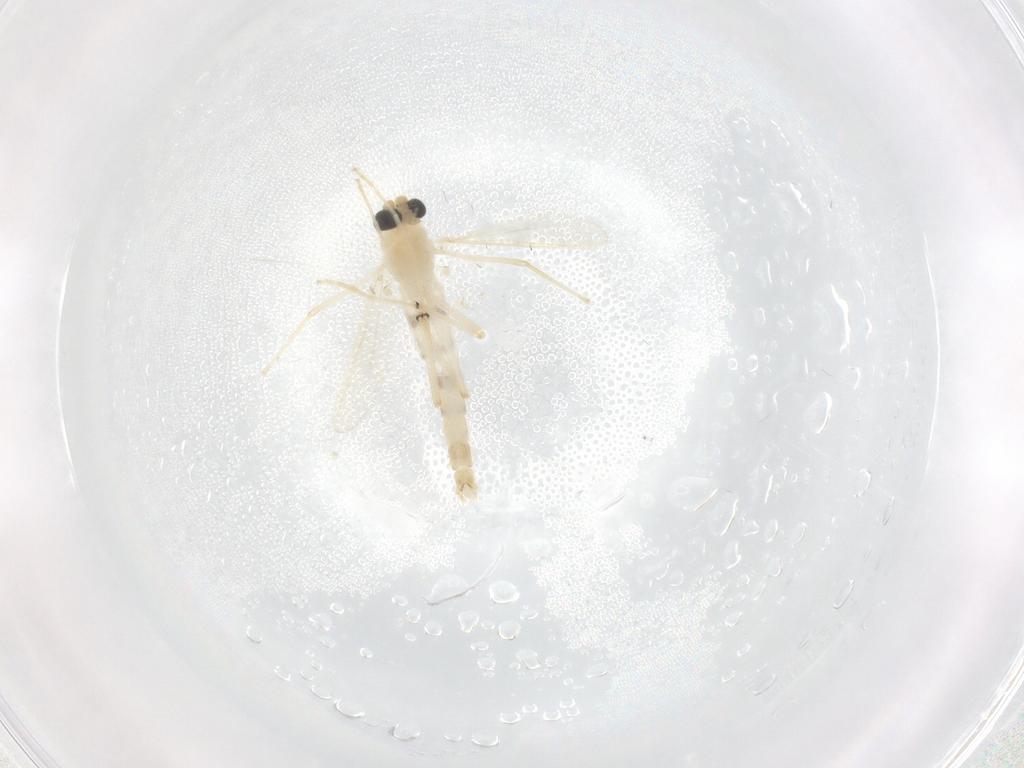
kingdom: Animalia
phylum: Arthropoda
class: Insecta
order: Diptera
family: Chironomidae
